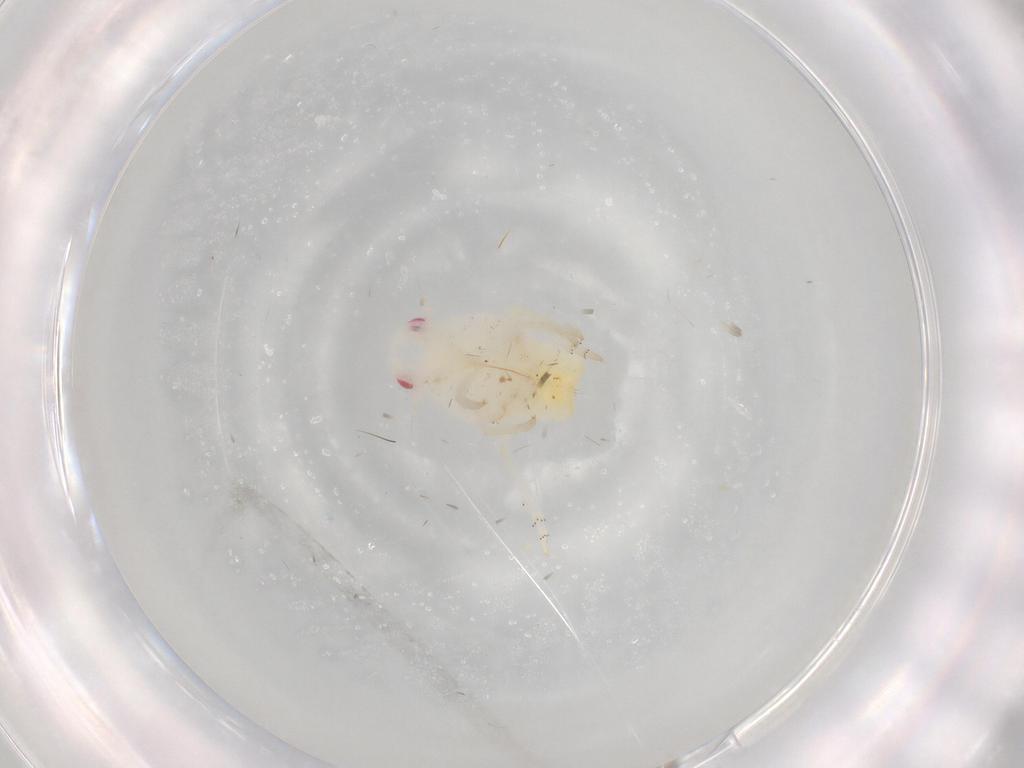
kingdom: Animalia
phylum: Arthropoda
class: Insecta
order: Hemiptera
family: Flatidae
